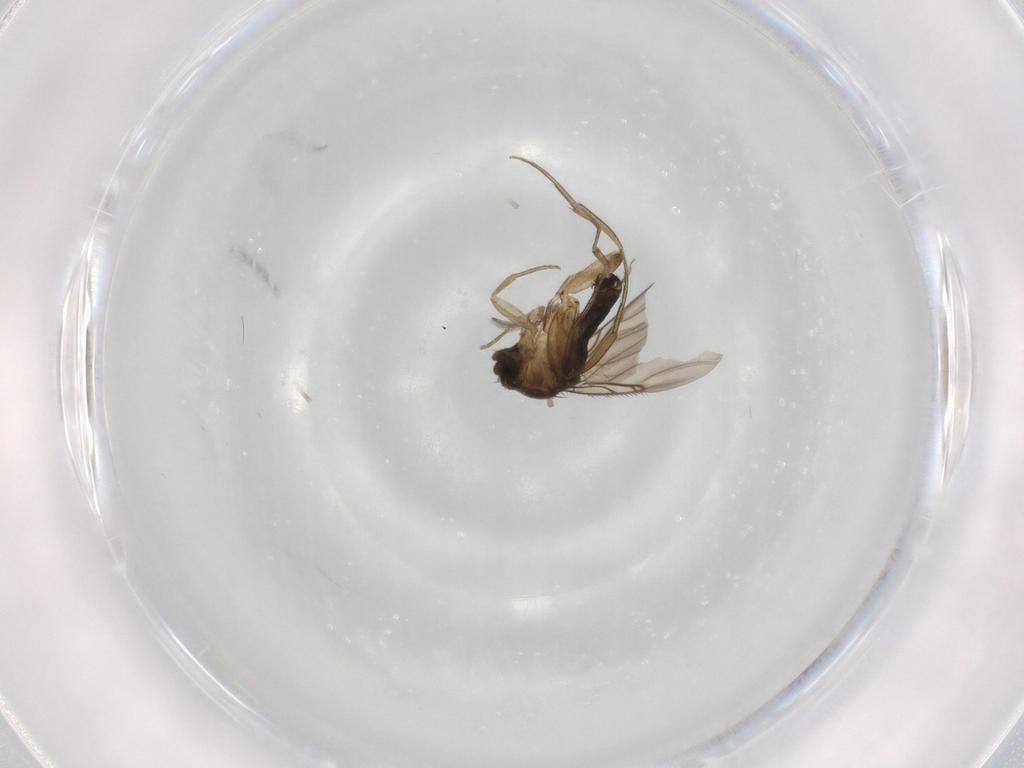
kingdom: Animalia
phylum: Arthropoda
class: Insecta
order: Diptera
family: Phoridae
